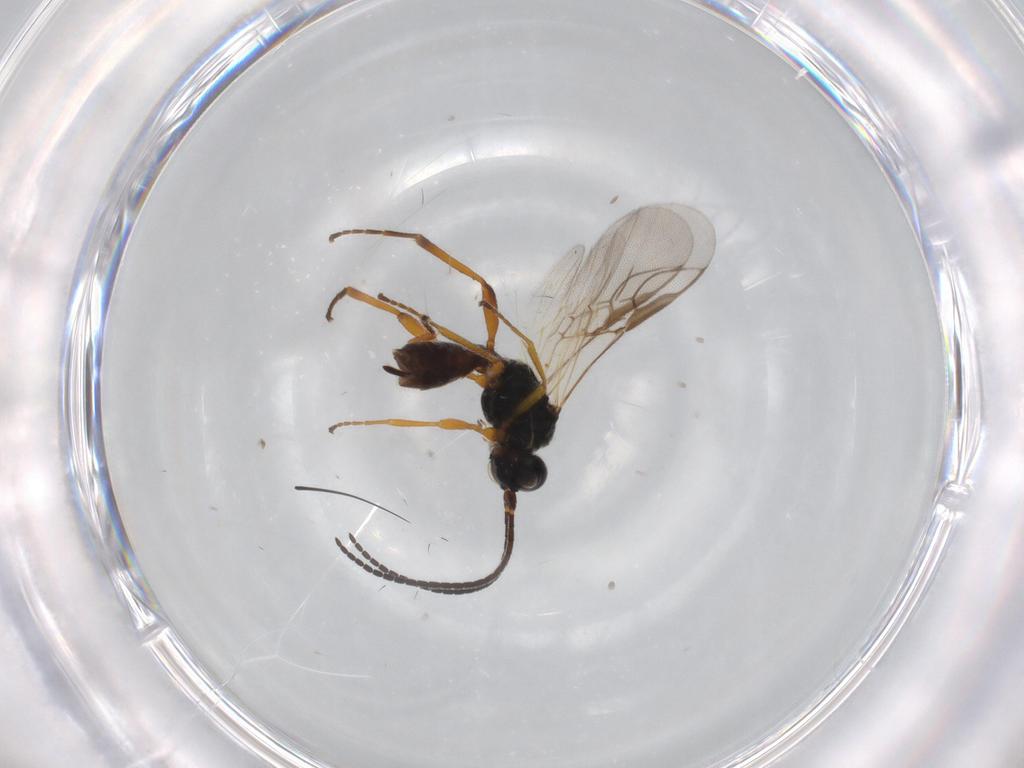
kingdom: Animalia
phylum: Arthropoda
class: Insecta
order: Hymenoptera
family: Braconidae
